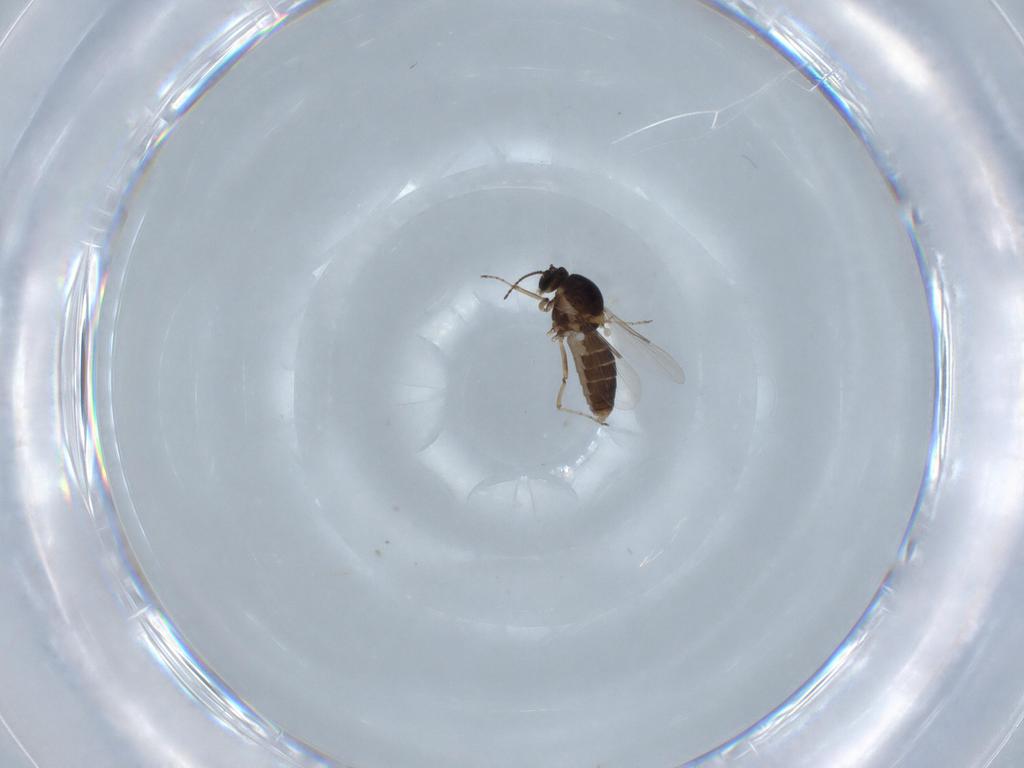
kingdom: Animalia
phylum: Arthropoda
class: Insecta
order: Diptera
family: Ceratopogonidae
